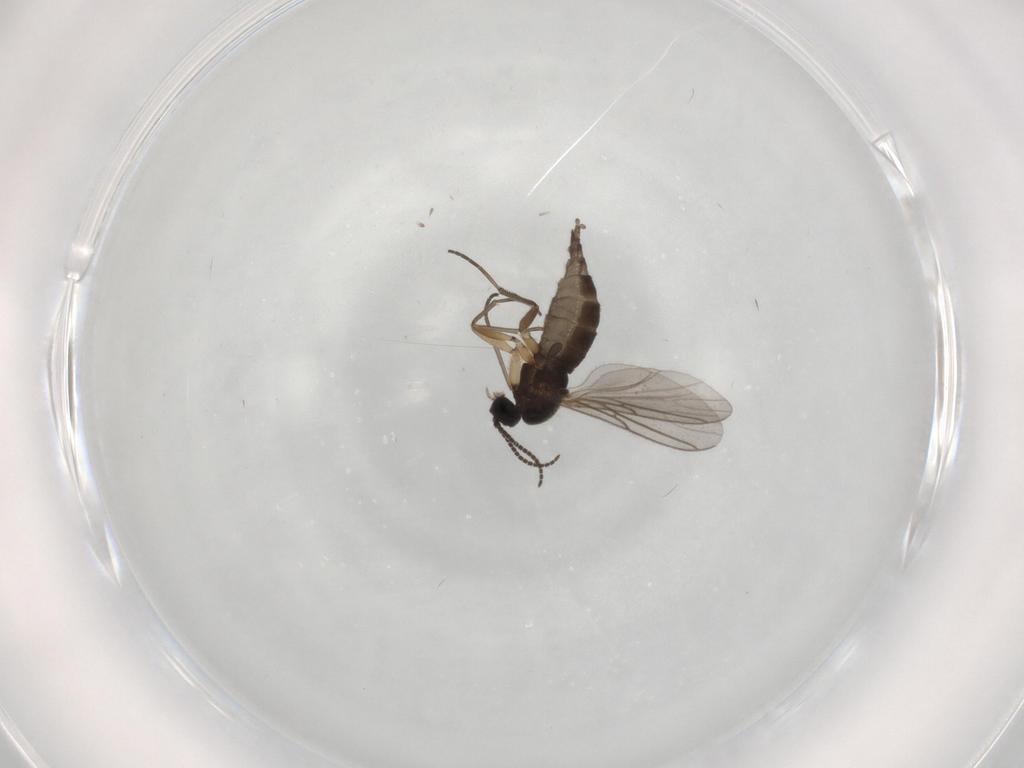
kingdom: Animalia
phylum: Arthropoda
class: Insecta
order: Diptera
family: Sciaridae
